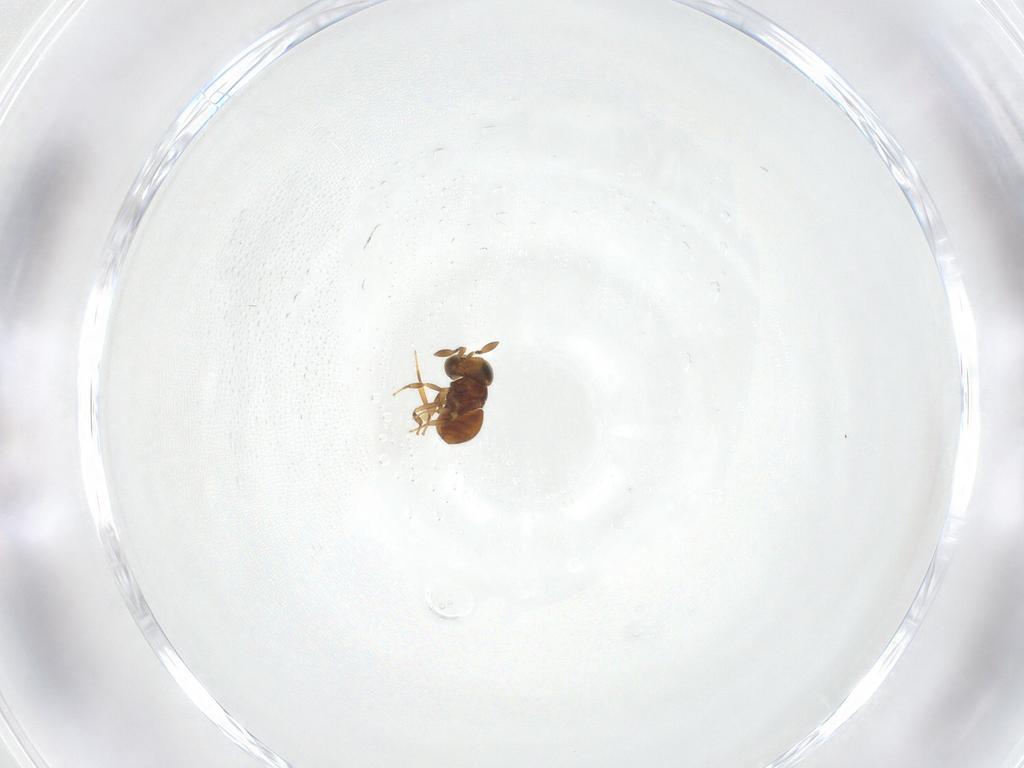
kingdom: Animalia
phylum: Arthropoda
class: Insecta
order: Hymenoptera
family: Scelionidae
